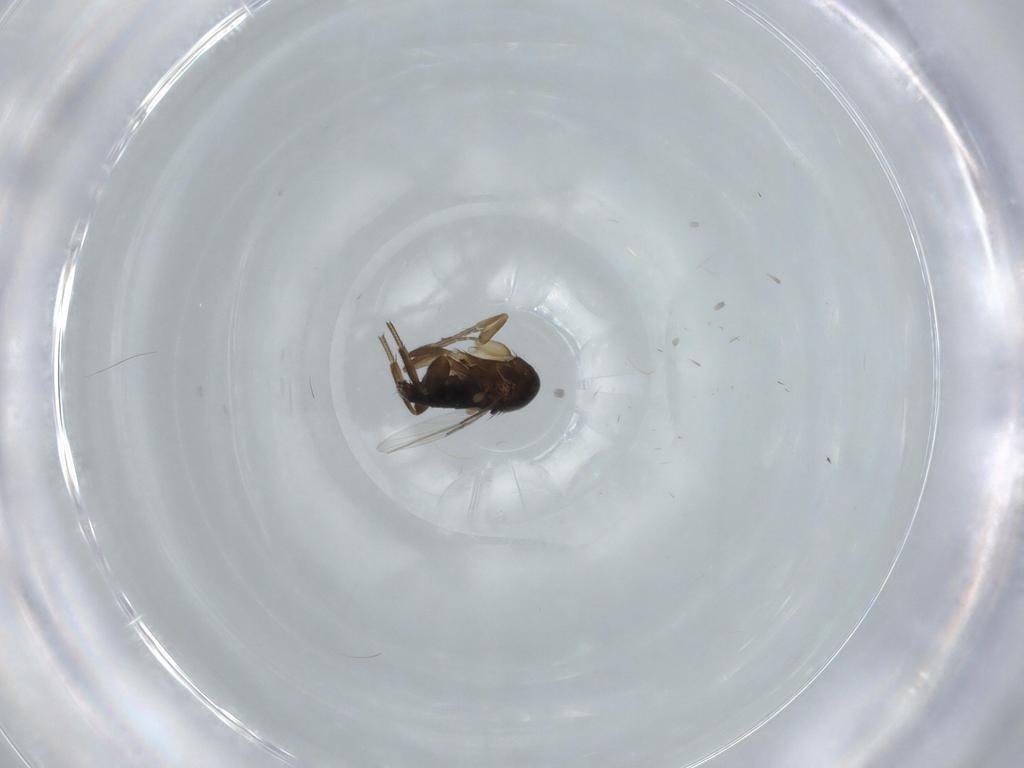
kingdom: Animalia
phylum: Arthropoda
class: Insecta
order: Diptera
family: Phoridae
